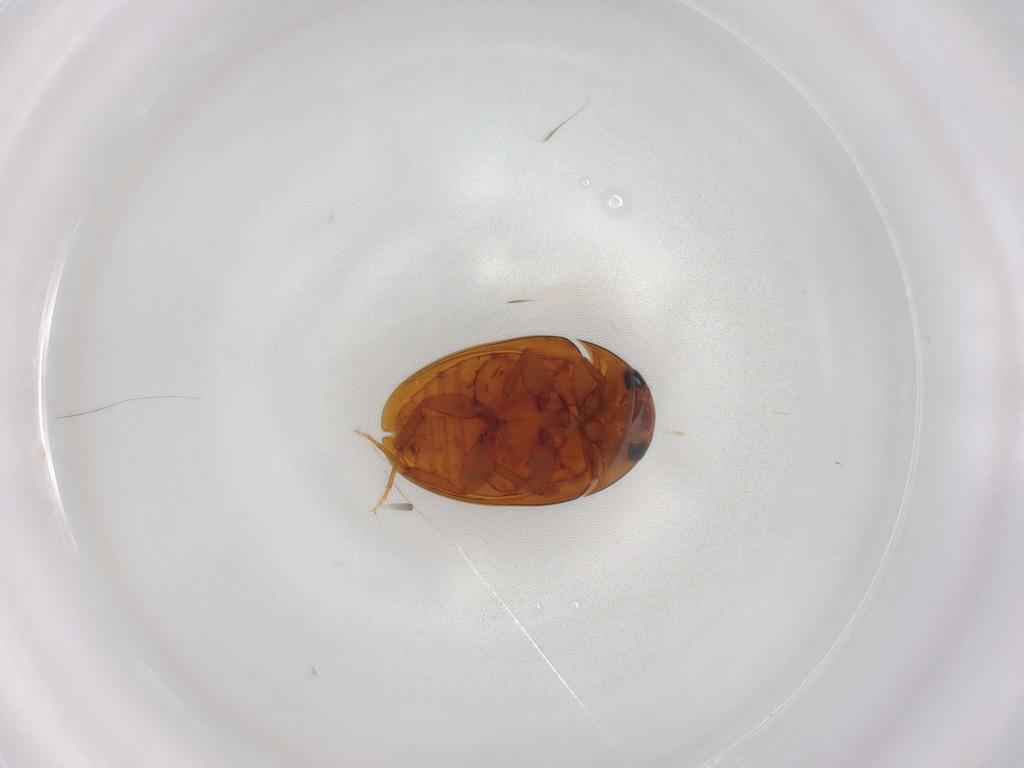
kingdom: Animalia
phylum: Arthropoda
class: Insecta
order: Coleoptera
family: Phalacridae
